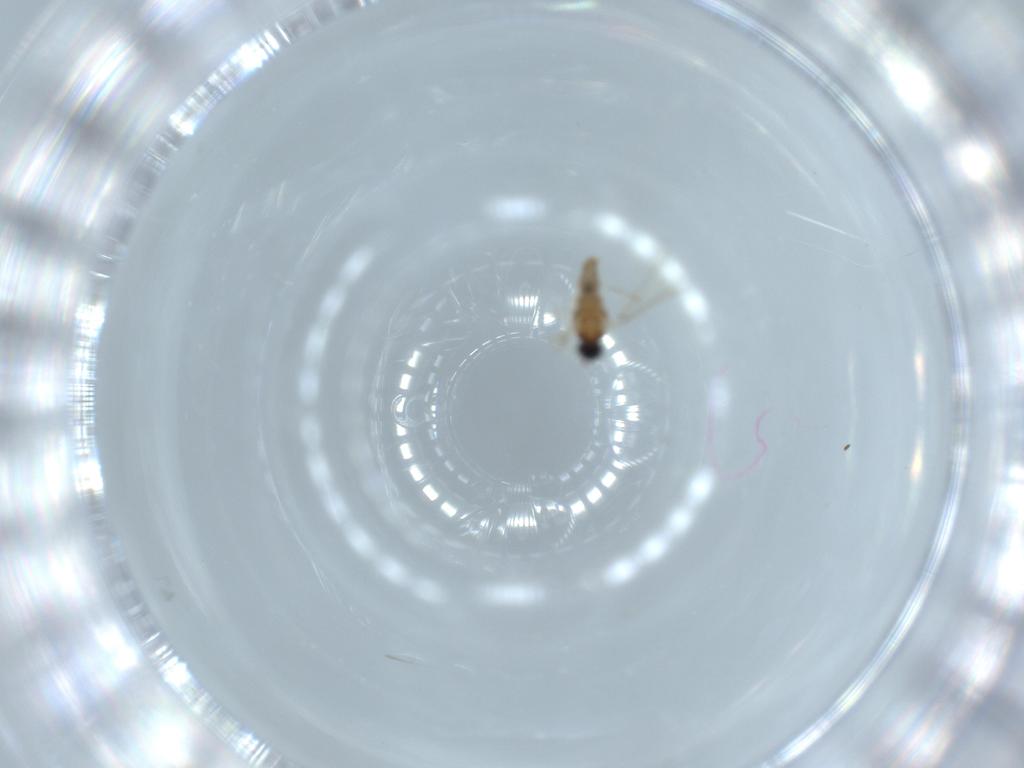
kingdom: Animalia
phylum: Arthropoda
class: Insecta
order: Diptera
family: Cecidomyiidae
